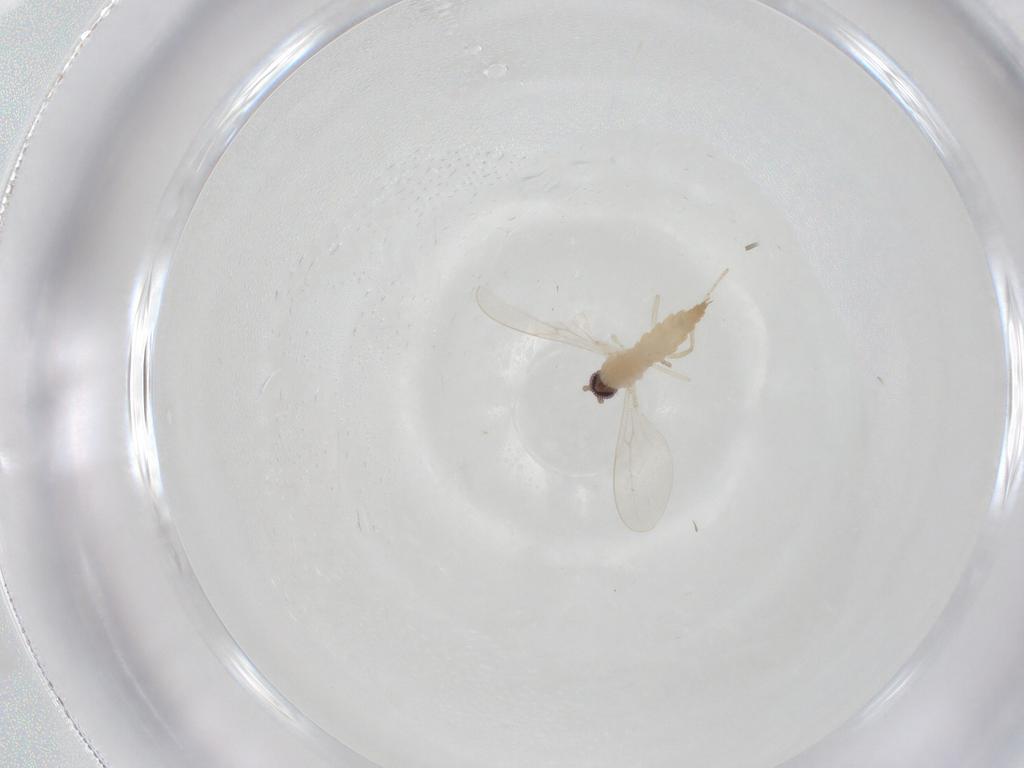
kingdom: Animalia
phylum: Arthropoda
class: Insecta
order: Diptera
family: Cecidomyiidae
